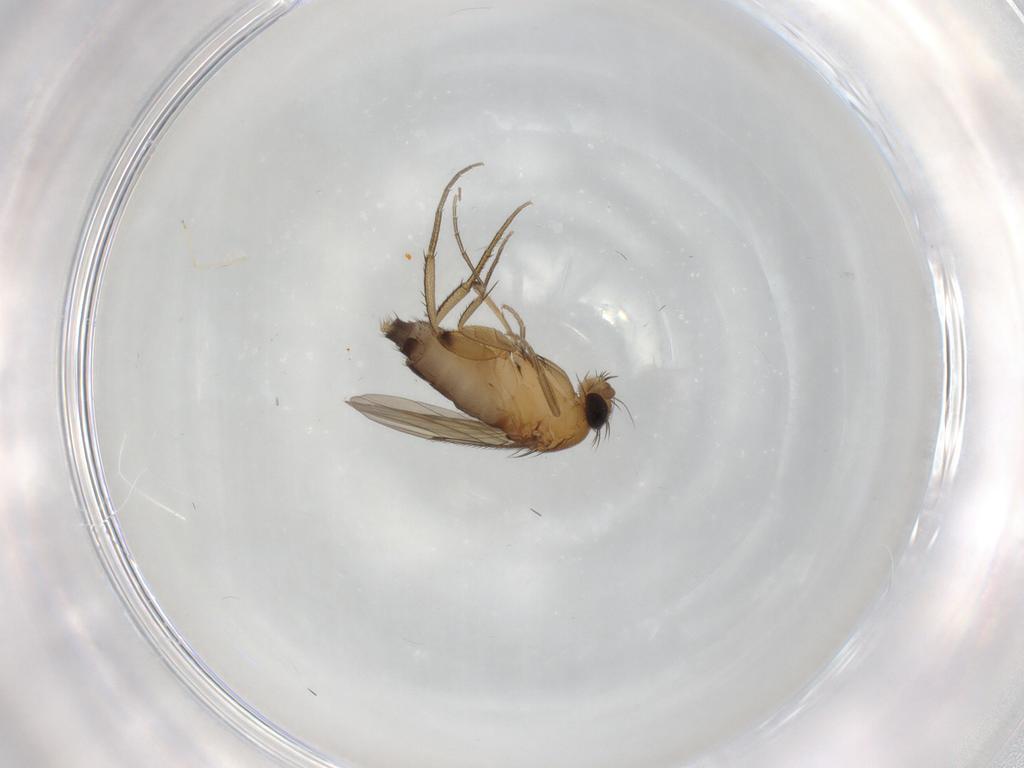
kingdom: Animalia
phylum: Arthropoda
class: Insecta
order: Diptera
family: Phoridae
